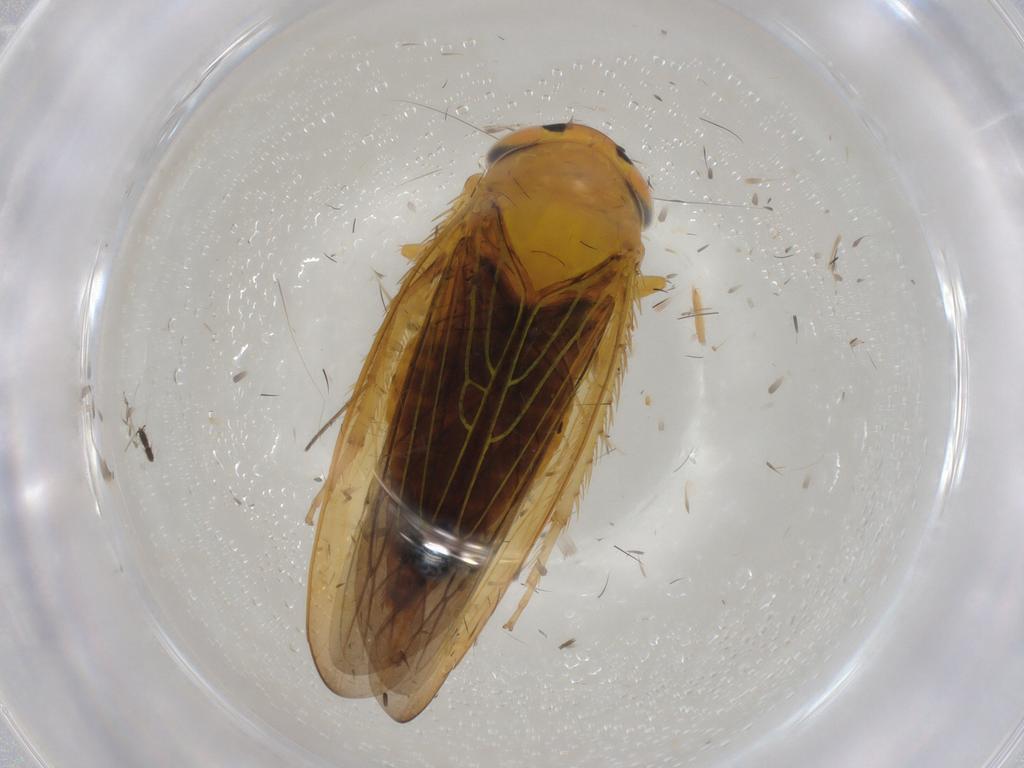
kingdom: Animalia
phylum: Arthropoda
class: Insecta
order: Hemiptera
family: Cicadellidae
